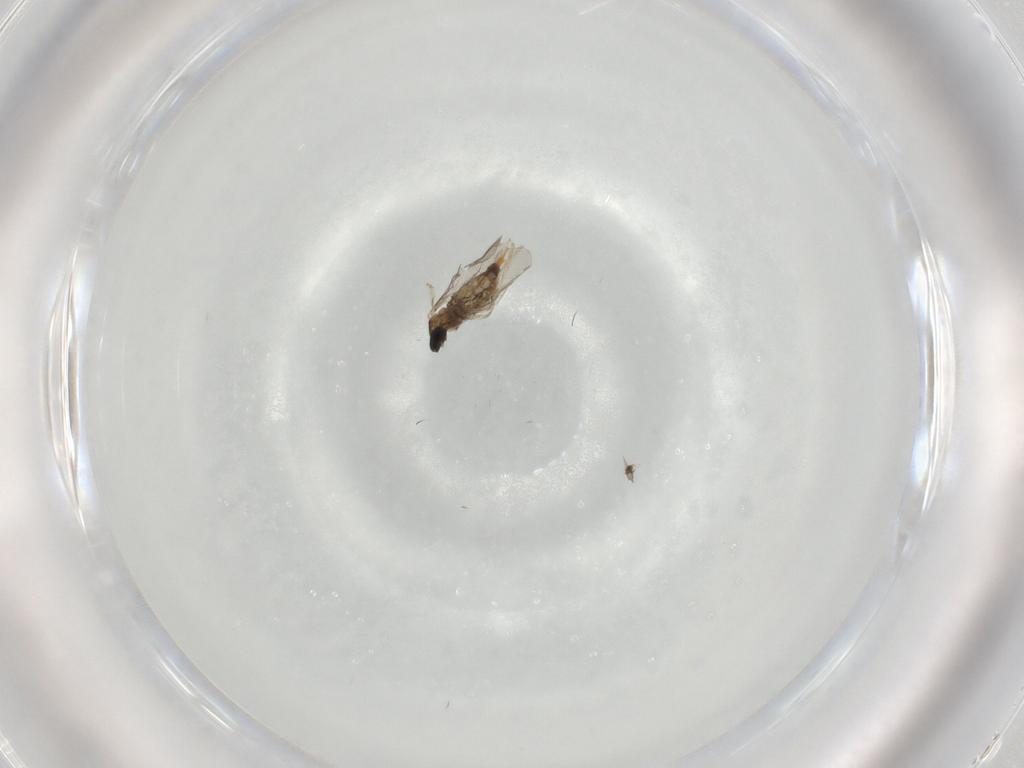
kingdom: Animalia
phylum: Arthropoda
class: Insecta
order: Diptera
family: Cecidomyiidae
